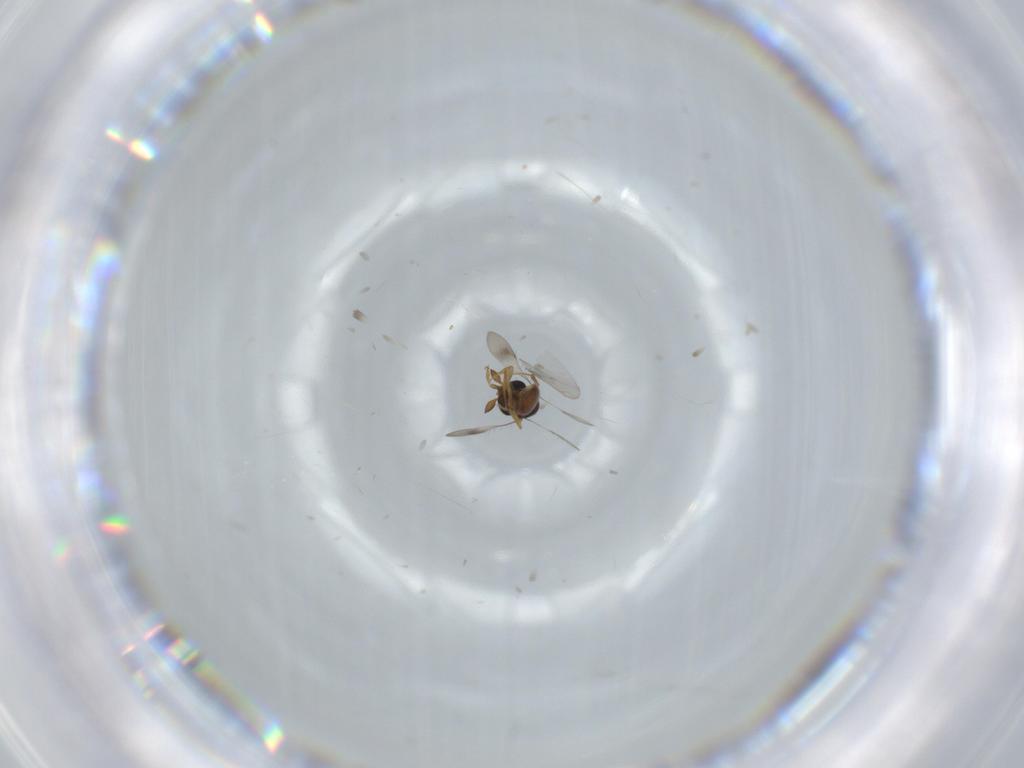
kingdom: Animalia
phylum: Arthropoda
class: Insecta
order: Hymenoptera
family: Scelionidae
